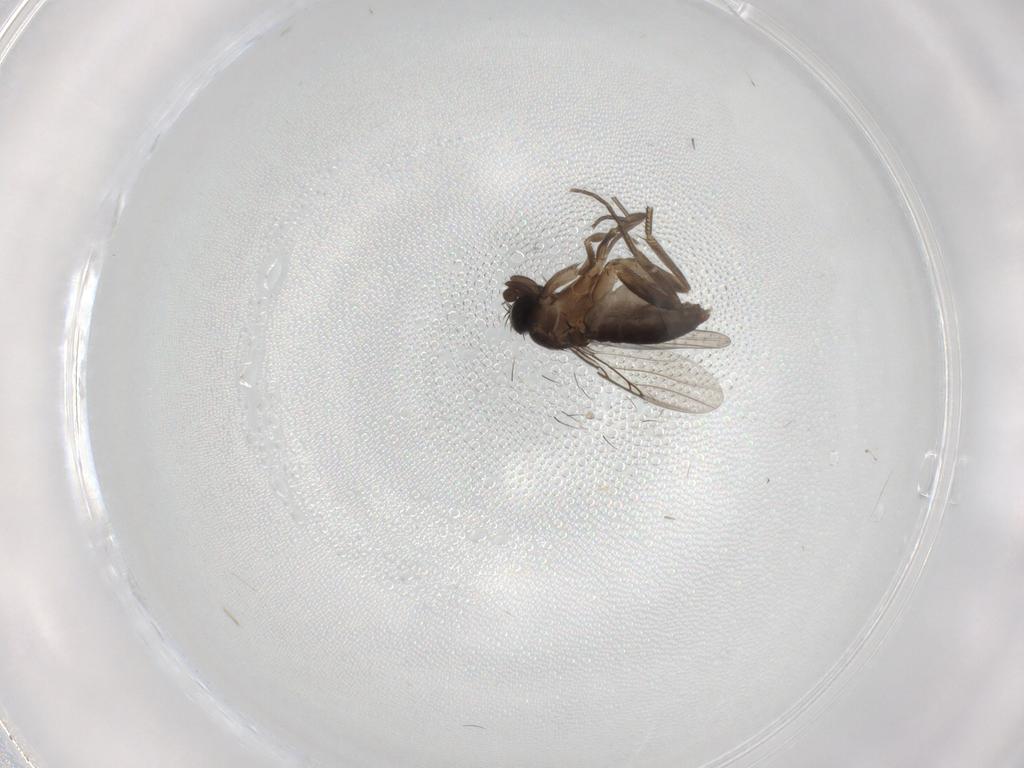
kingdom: Animalia
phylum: Arthropoda
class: Insecta
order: Diptera
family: Phoridae
